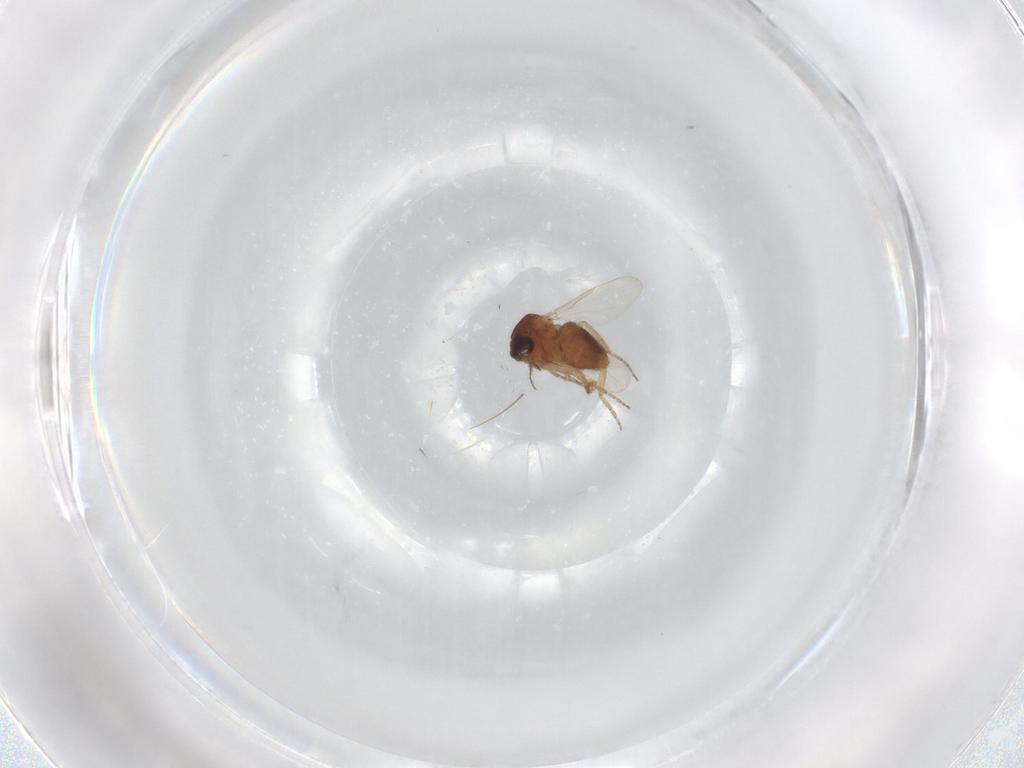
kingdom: Animalia
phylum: Arthropoda
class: Insecta
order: Diptera
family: Ceratopogonidae
